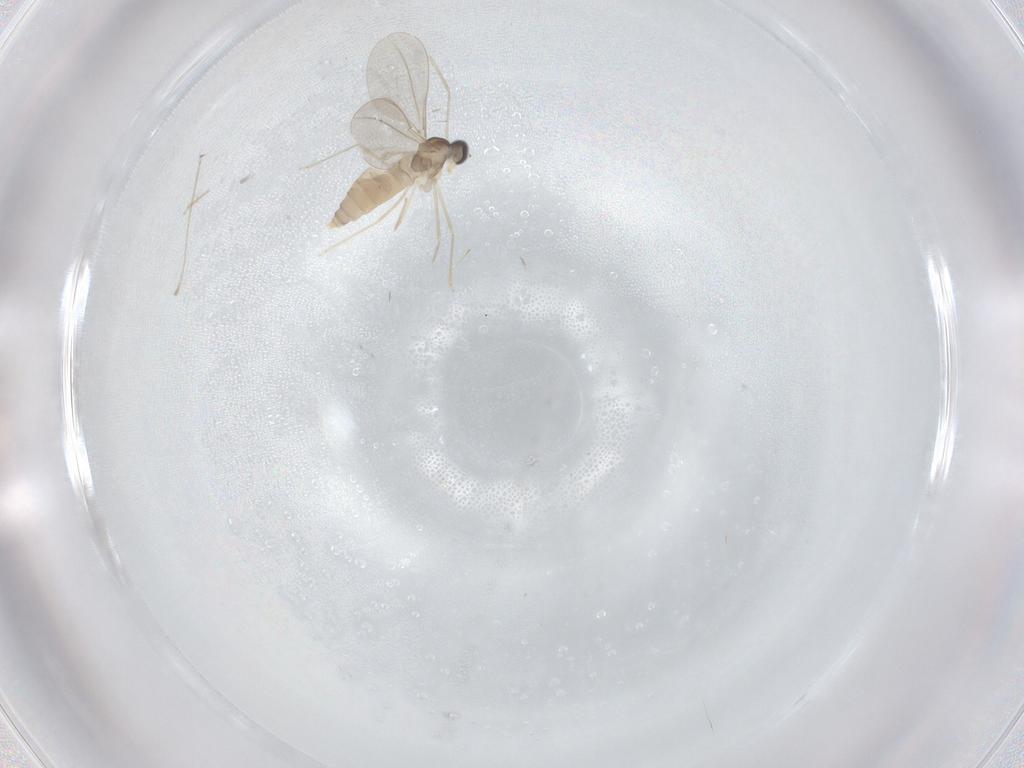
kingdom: Animalia
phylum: Arthropoda
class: Insecta
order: Diptera
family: Cecidomyiidae
